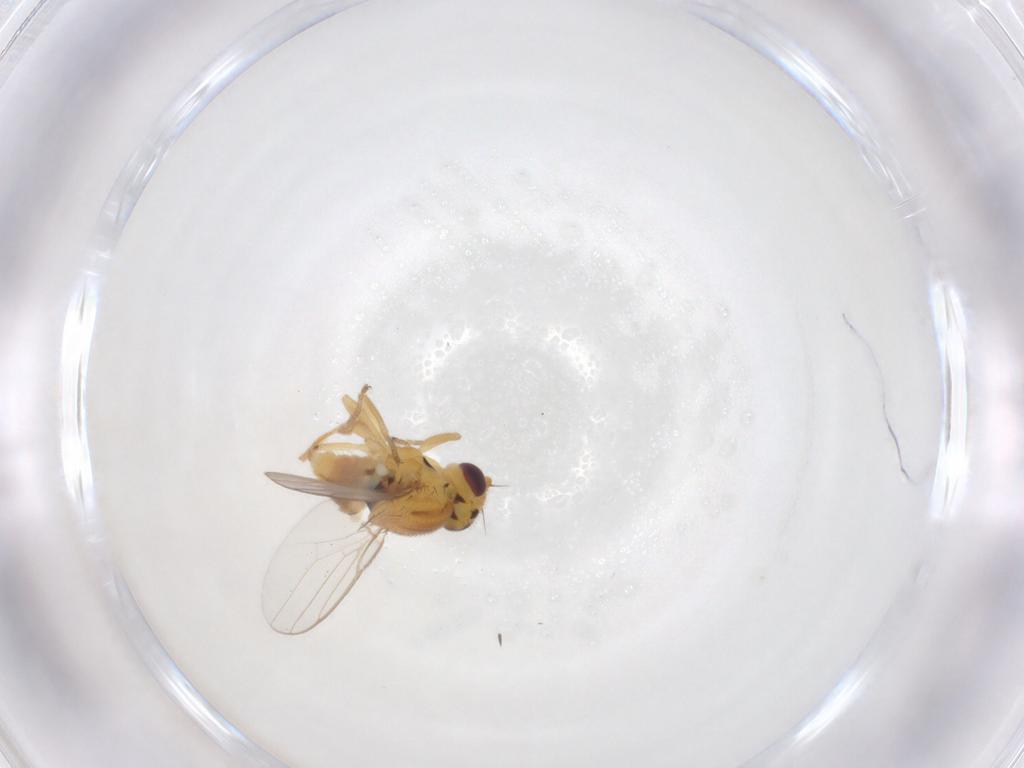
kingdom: Animalia
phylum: Arthropoda
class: Insecta
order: Diptera
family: Chloropidae
